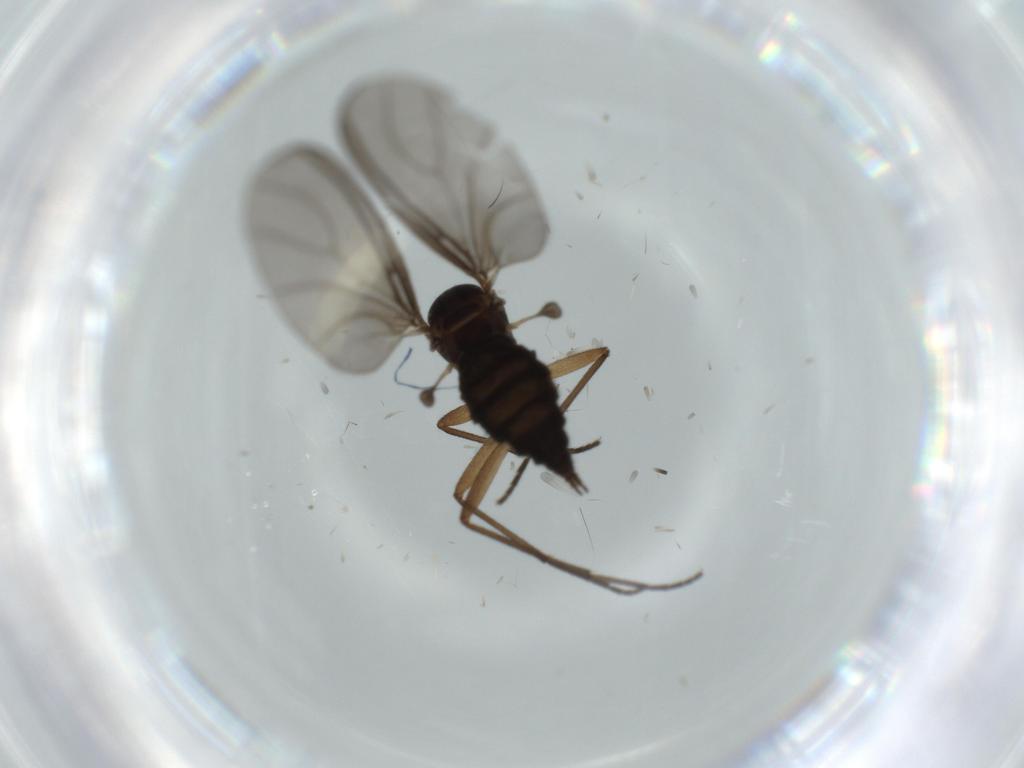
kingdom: Animalia
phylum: Arthropoda
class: Insecta
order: Diptera
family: Sciaridae
